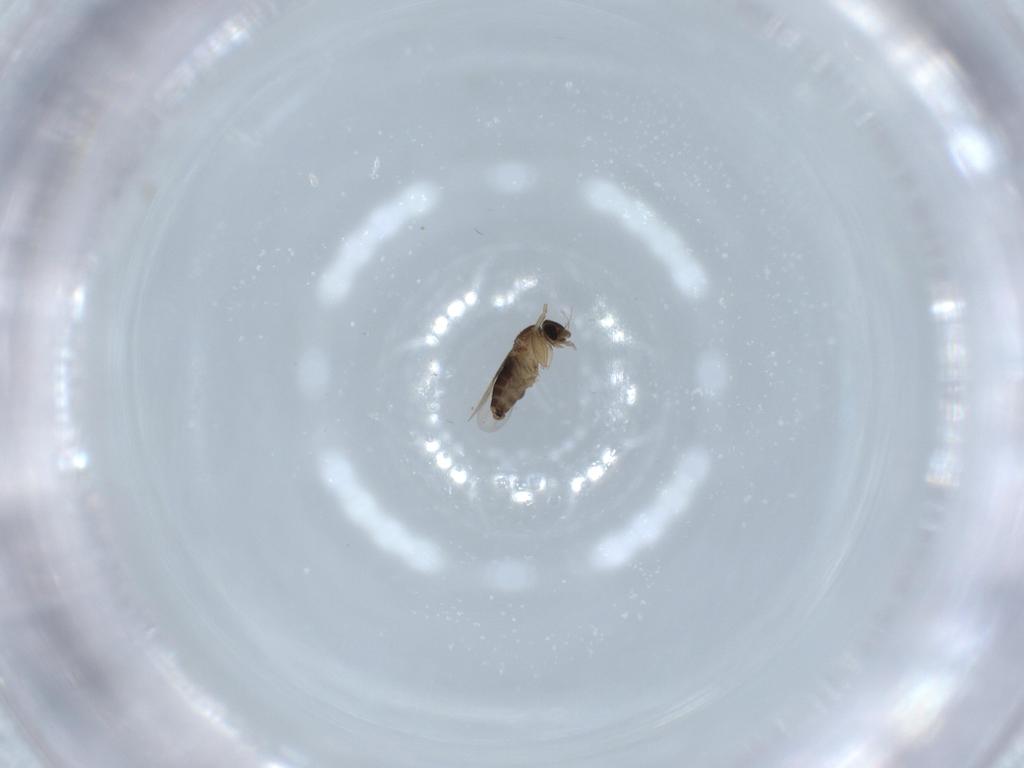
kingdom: Animalia
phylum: Arthropoda
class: Insecta
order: Diptera
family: Phoridae
